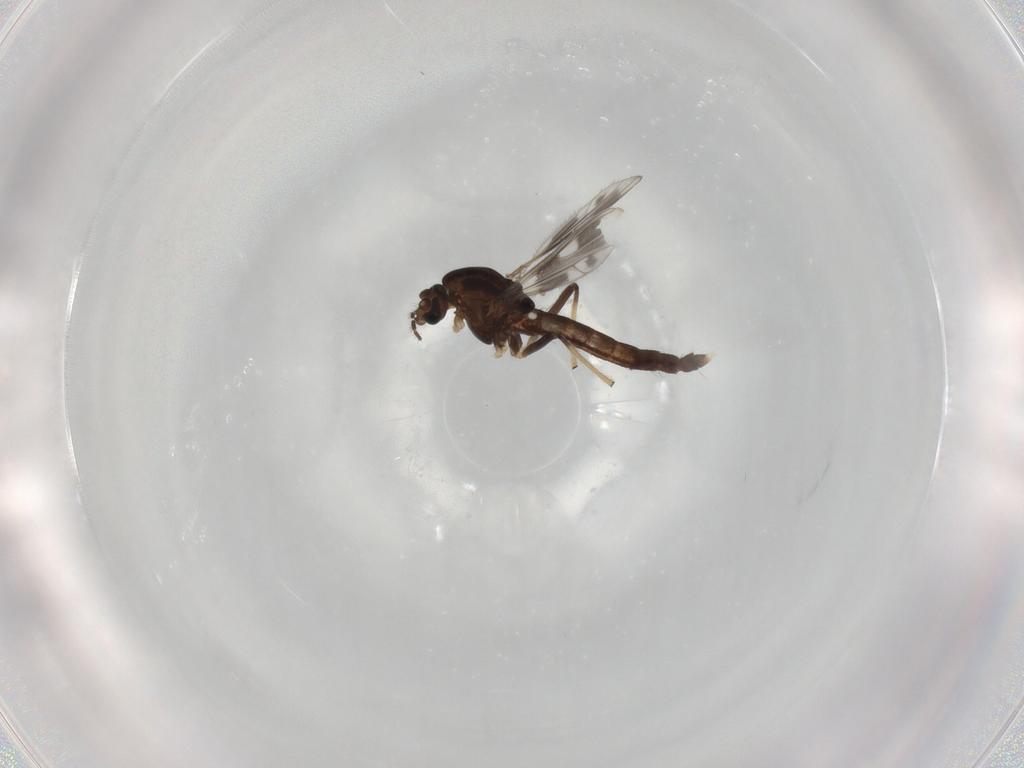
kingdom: Animalia
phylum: Arthropoda
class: Insecta
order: Diptera
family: Chironomidae
